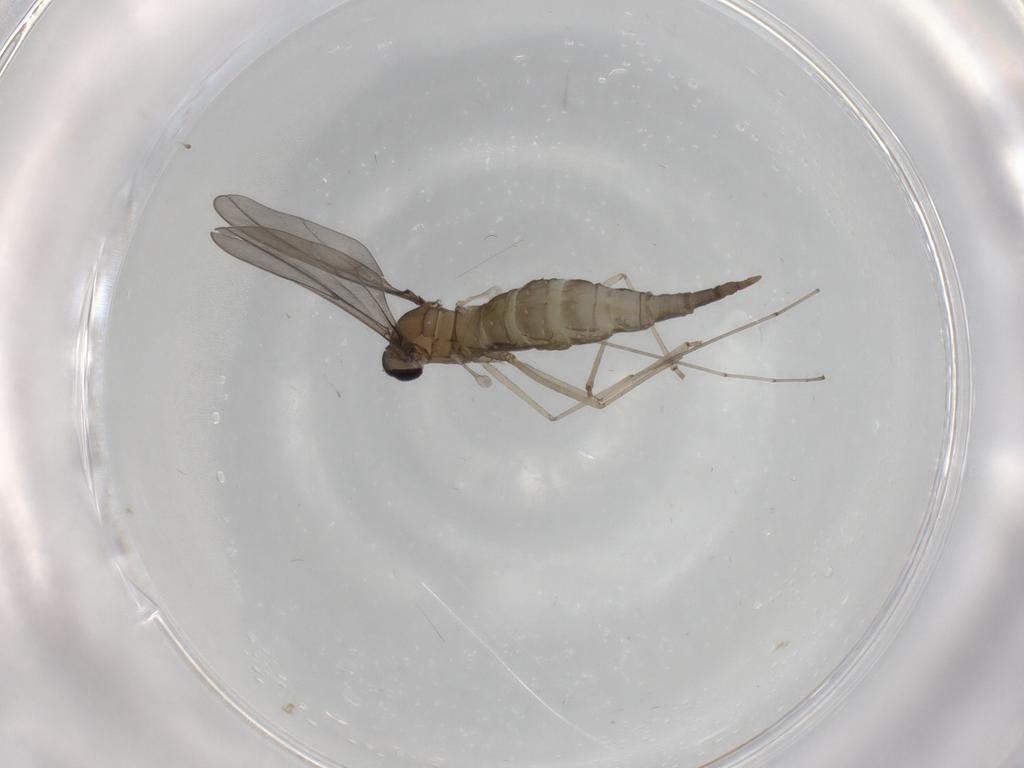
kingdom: Animalia
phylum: Arthropoda
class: Insecta
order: Diptera
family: Cecidomyiidae
